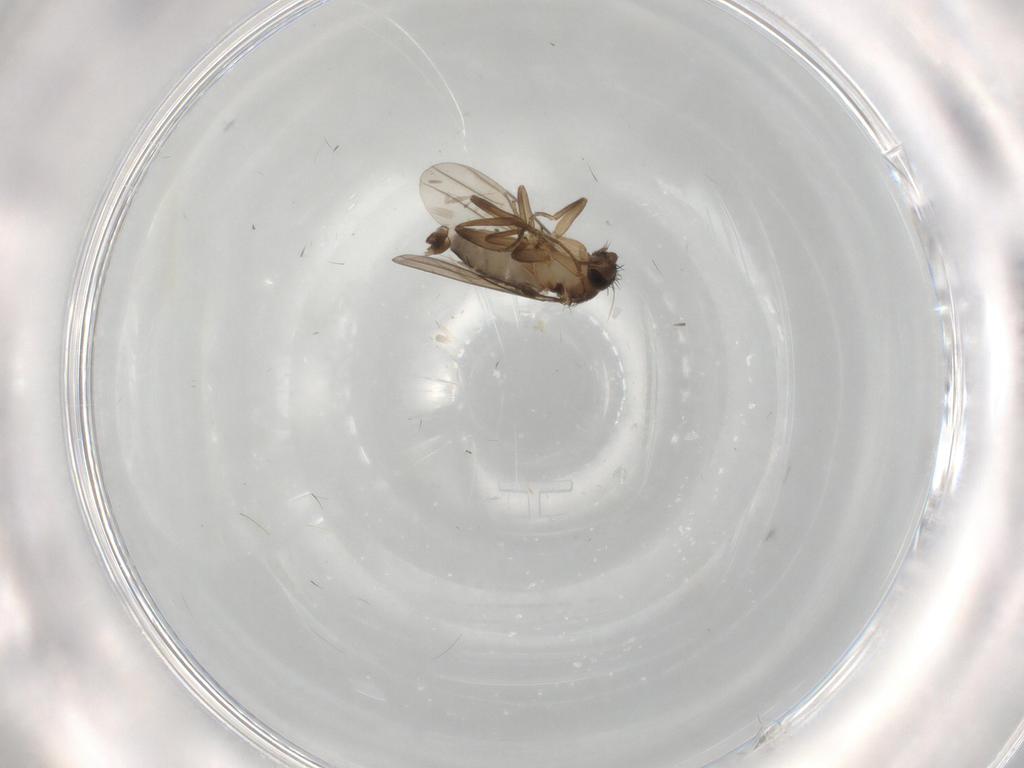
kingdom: Animalia
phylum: Arthropoda
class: Insecta
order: Diptera
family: Phoridae
